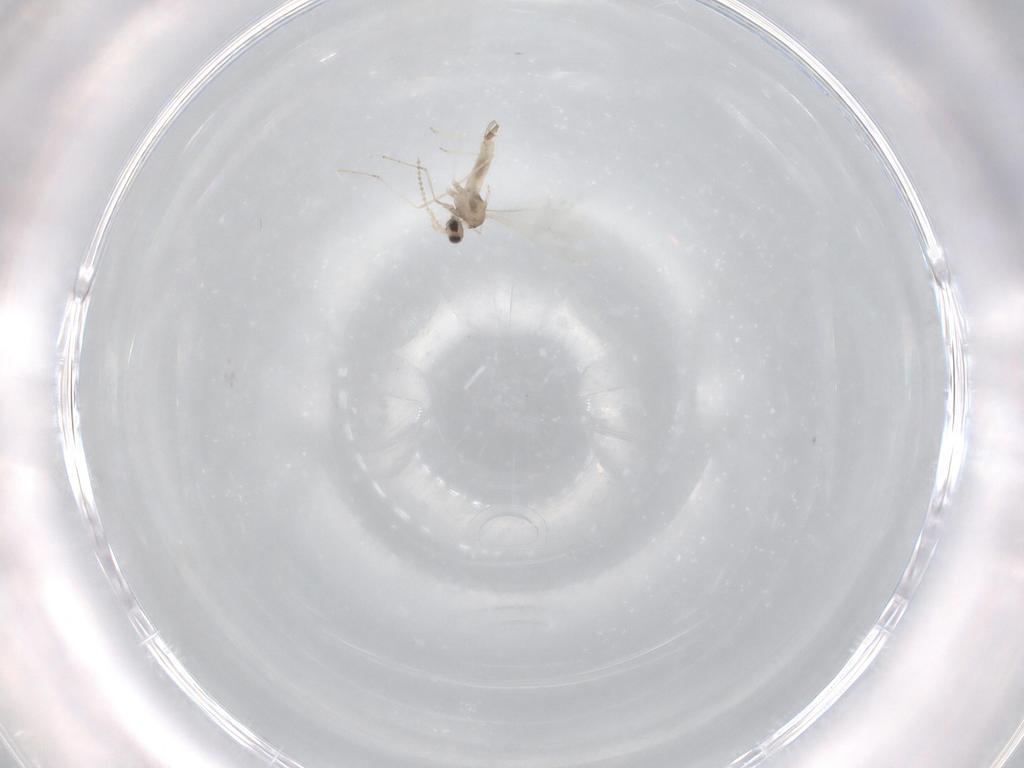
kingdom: Animalia
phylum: Arthropoda
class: Insecta
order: Diptera
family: Cecidomyiidae
